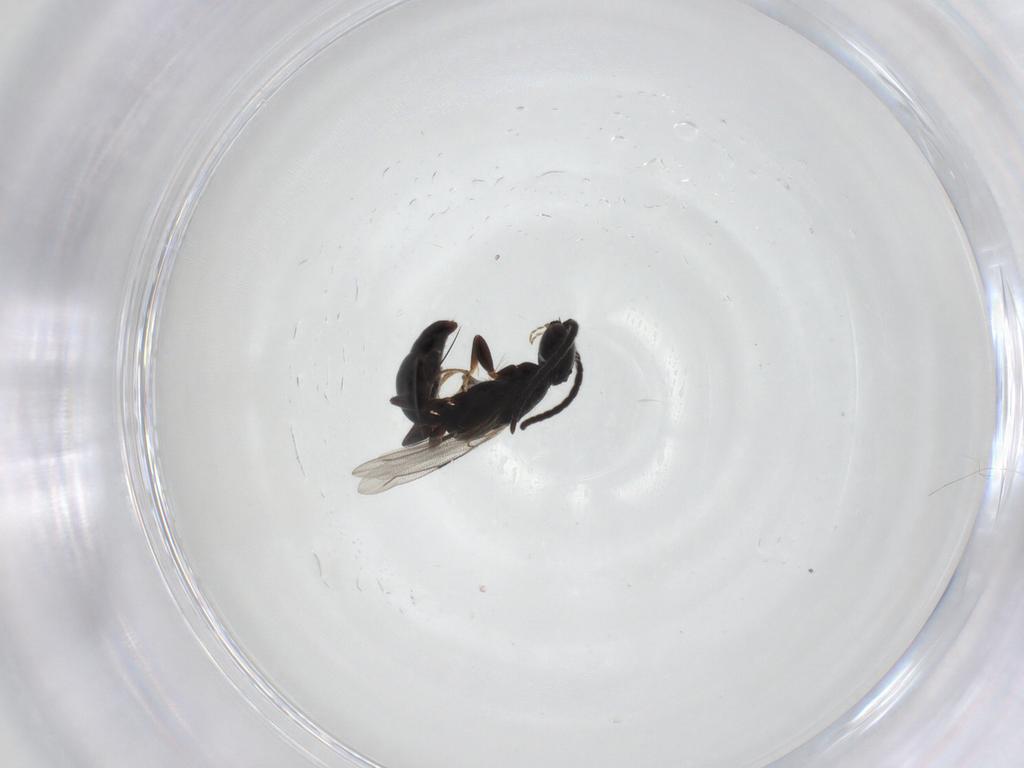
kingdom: Animalia
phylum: Arthropoda
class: Insecta
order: Hymenoptera
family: Bethylidae
